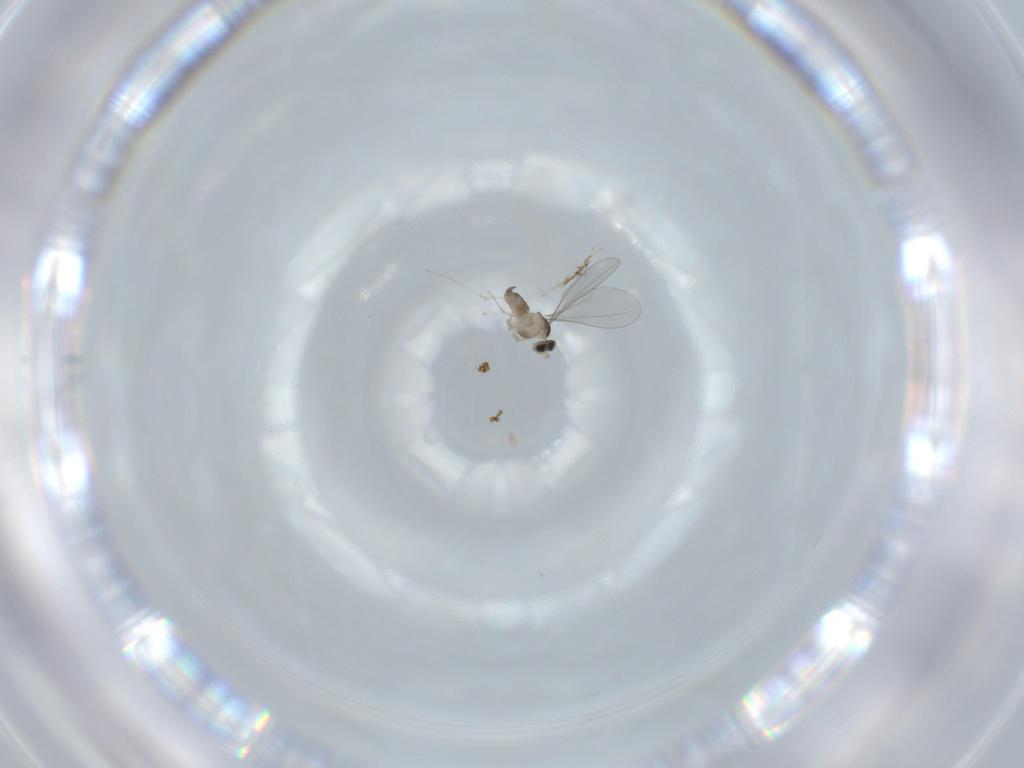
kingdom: Animalia
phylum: Arthropoda
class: Insecta
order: Diptera
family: Cecidomyiidae
